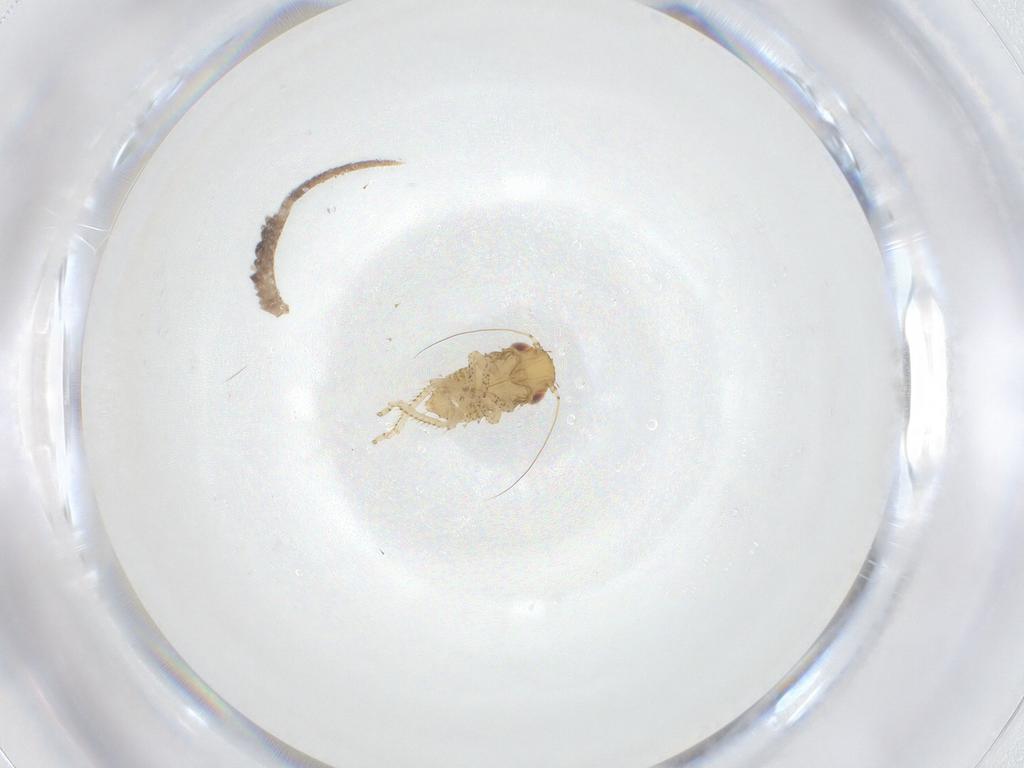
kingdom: Animalia
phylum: Arthropoda
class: Insecta
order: Hemiptera
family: Cicadellidae
